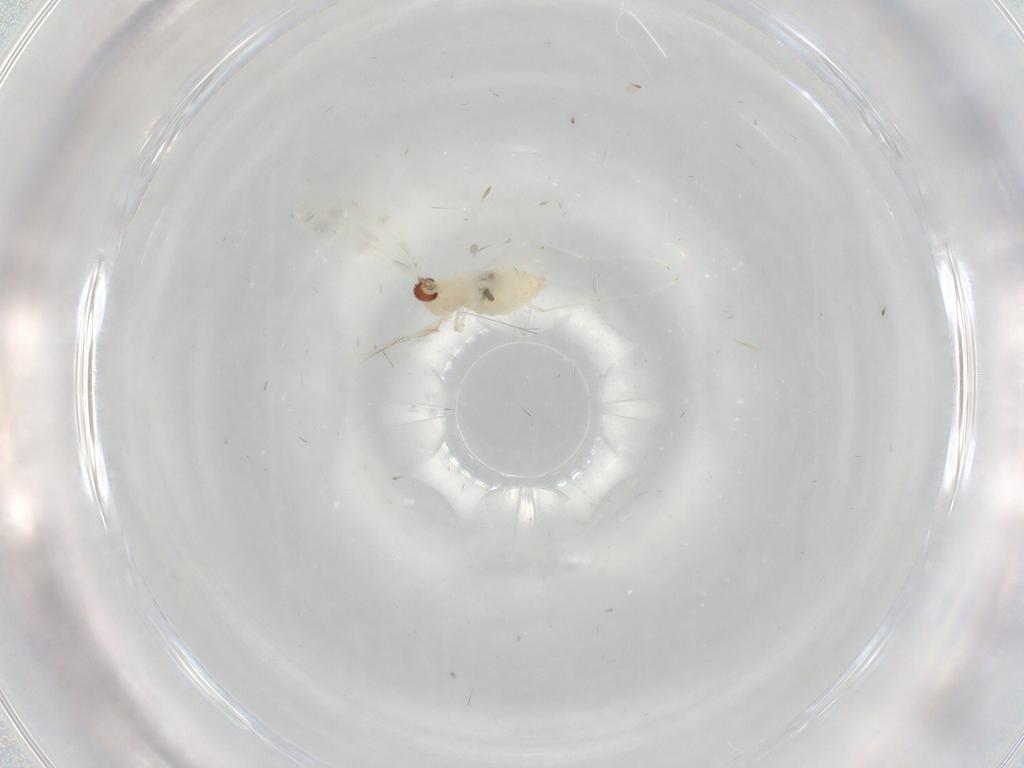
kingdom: Animalia
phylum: Arthropoda
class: Insecta
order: Diptera
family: Cecidomyiidae
